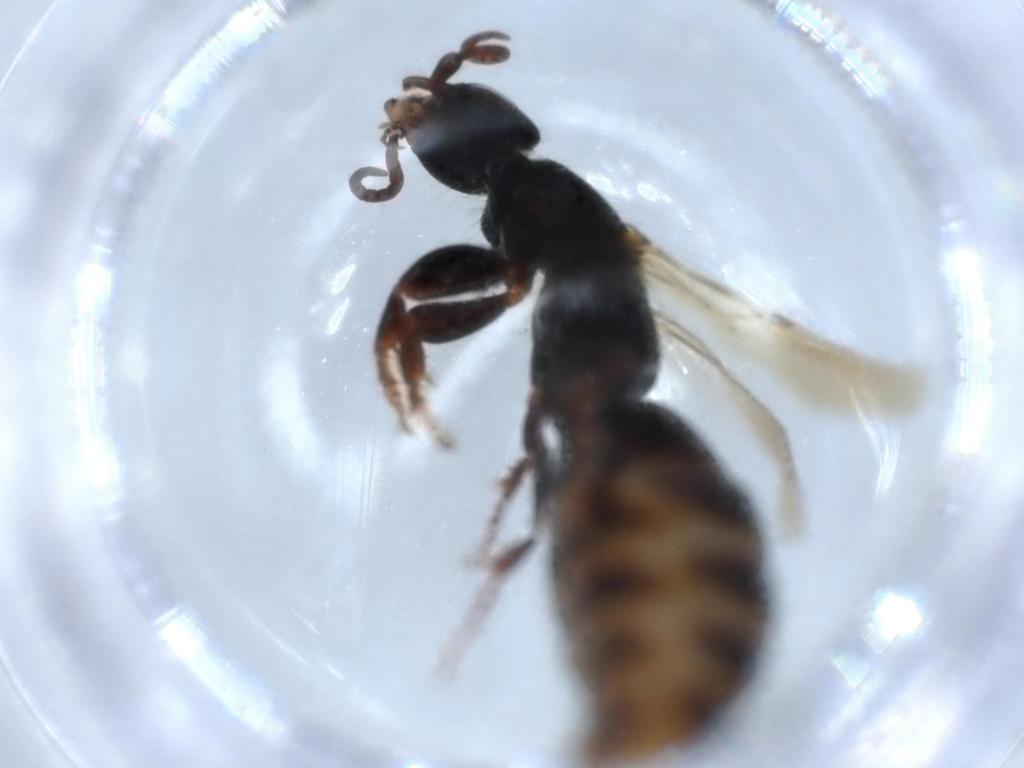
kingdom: Animalia
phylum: Arthropoda
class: Insecta
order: Hymenoptera
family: Bethylidae
